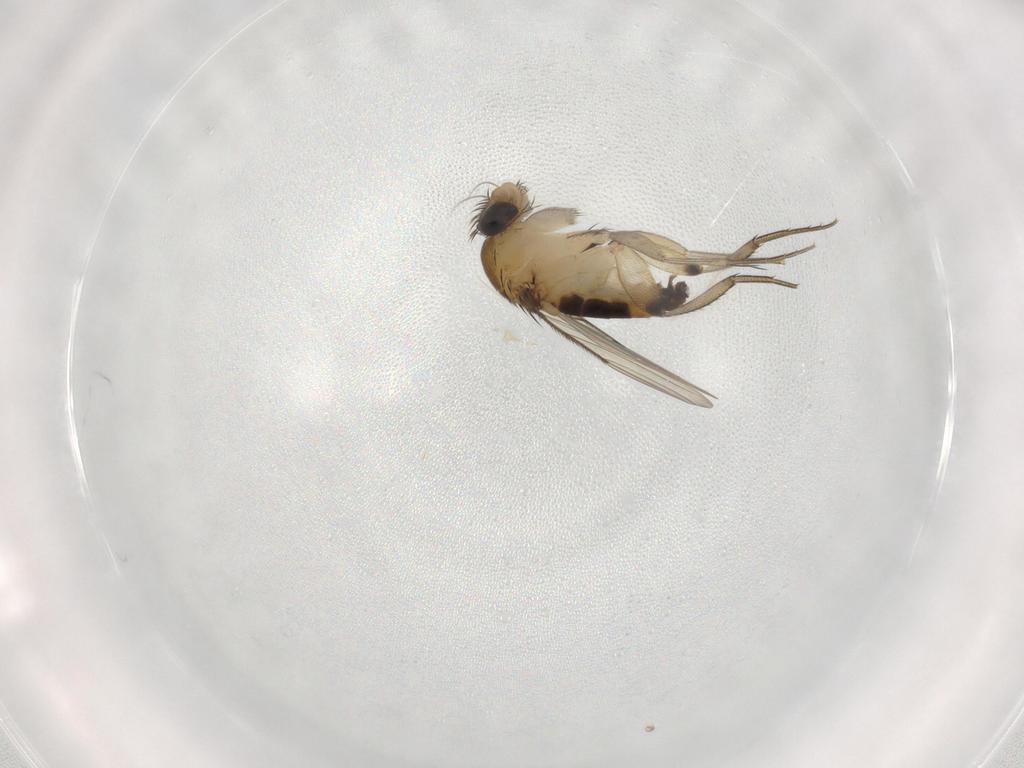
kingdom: Animalia
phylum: Arthropoda
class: Insecta
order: Diptera
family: Phoridae
